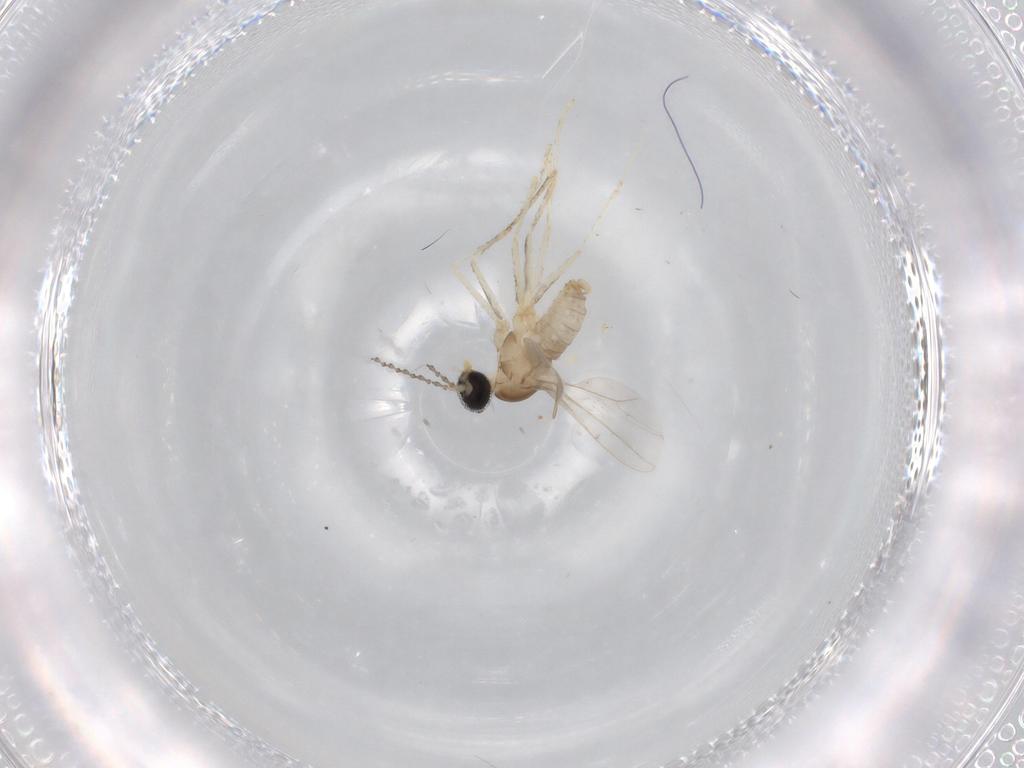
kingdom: Animalia
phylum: Arthropoda
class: Insecta
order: Diptera
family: Cecidomyiidae
